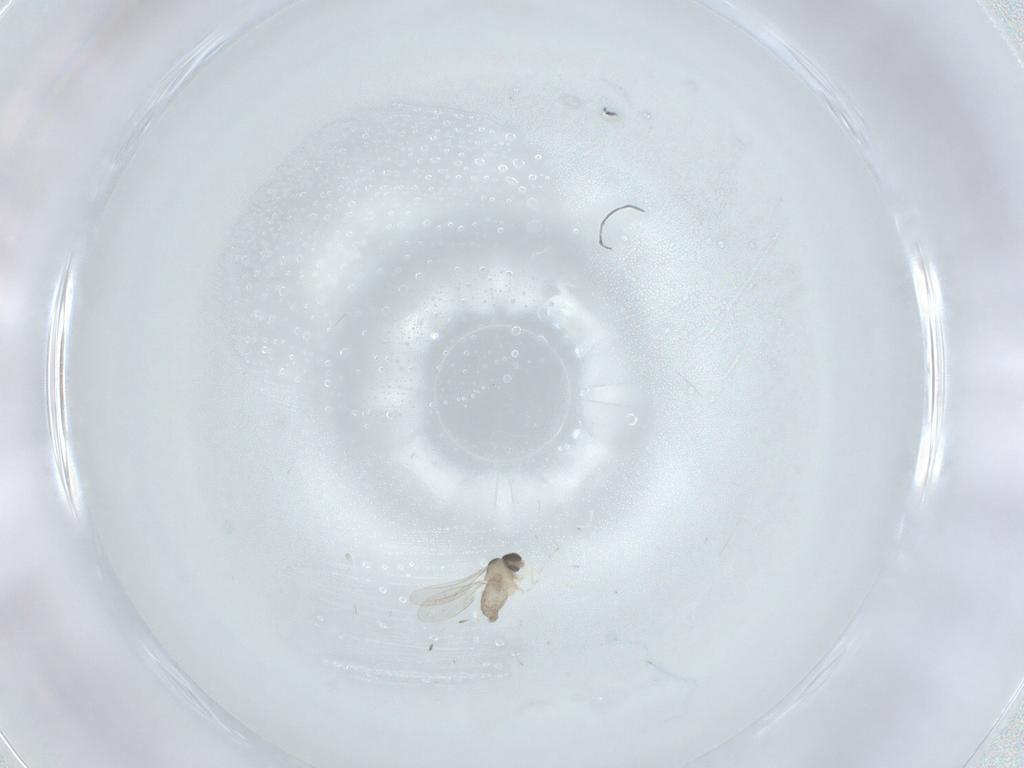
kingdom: Animalia
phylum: Arthropoda
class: Insecta
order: Diptera
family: Cecidomyiidae
